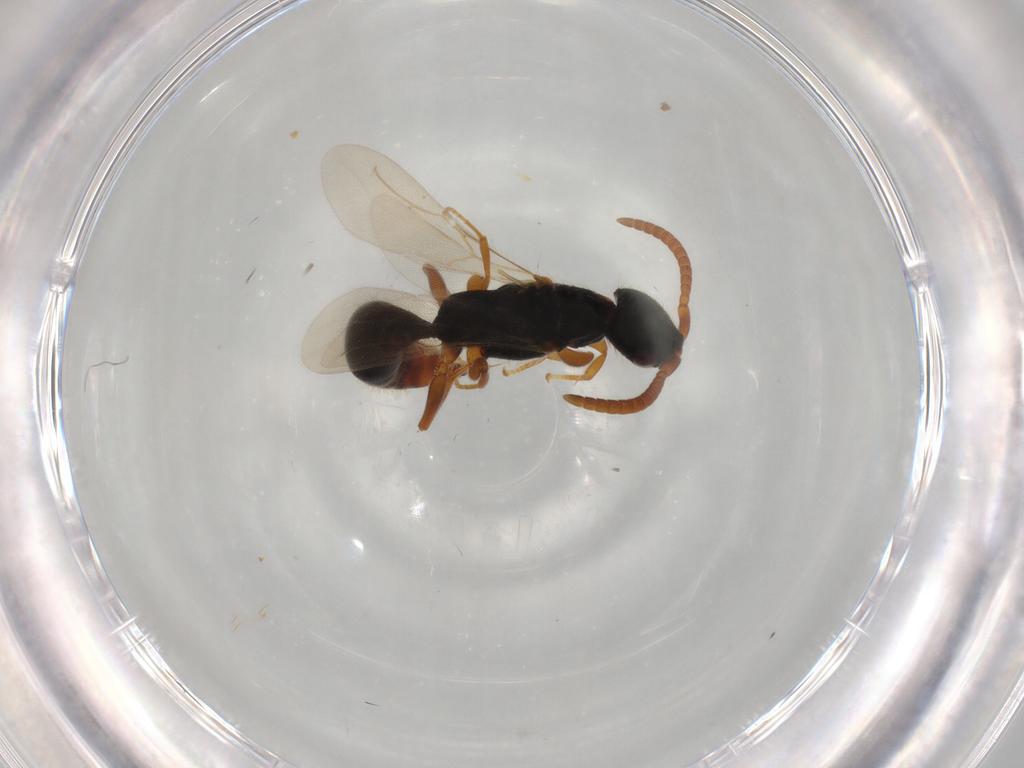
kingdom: Animalia
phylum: Arthropoda
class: Insecta
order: Hymenoptera
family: Bethylidae
